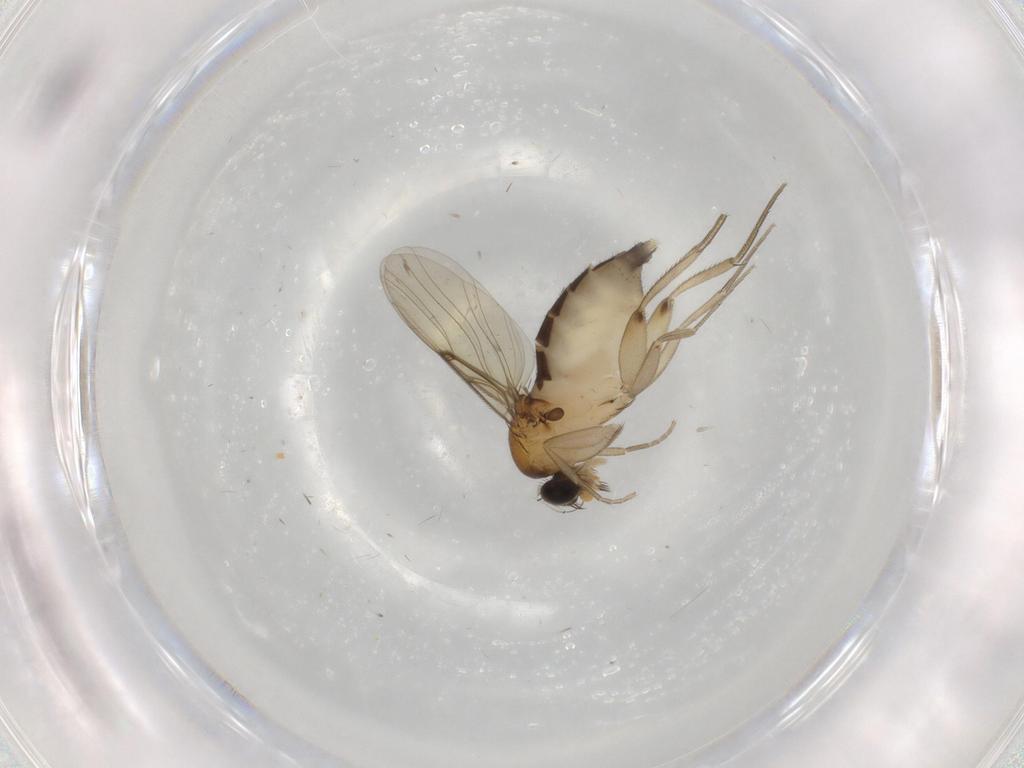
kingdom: Animalia
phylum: Arthropoda
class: Insecta
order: Diptera
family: Phoridae
